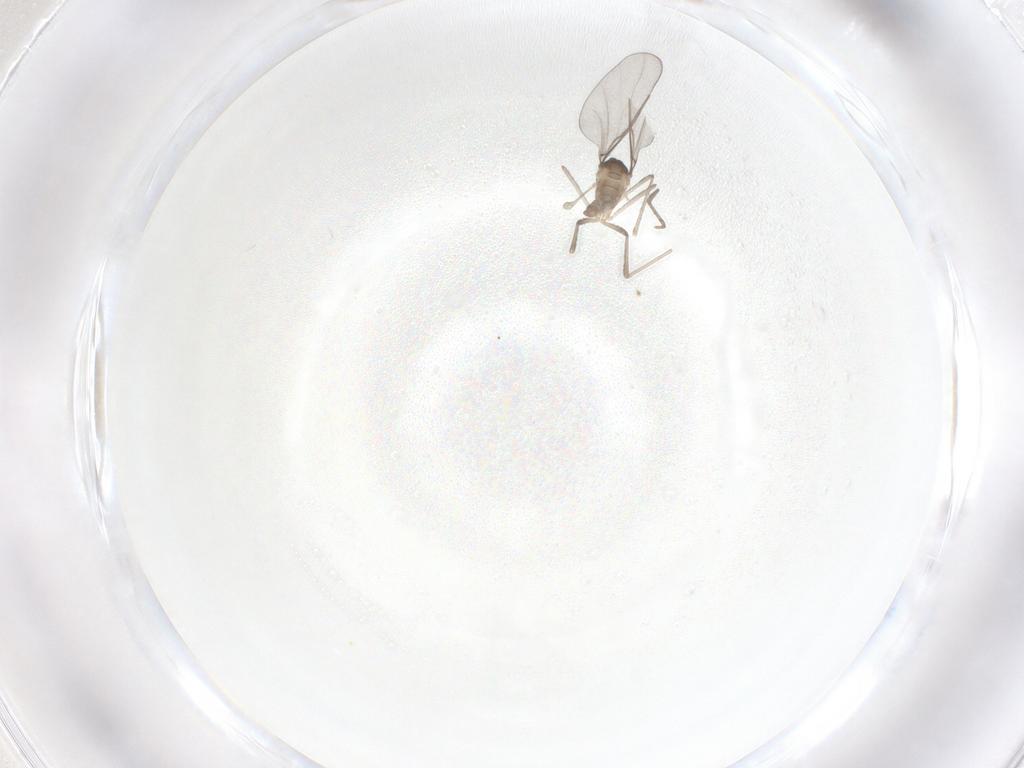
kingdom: Animalia
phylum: Arthropoda
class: Insecta
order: Diptera
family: Cecidomyiidae
